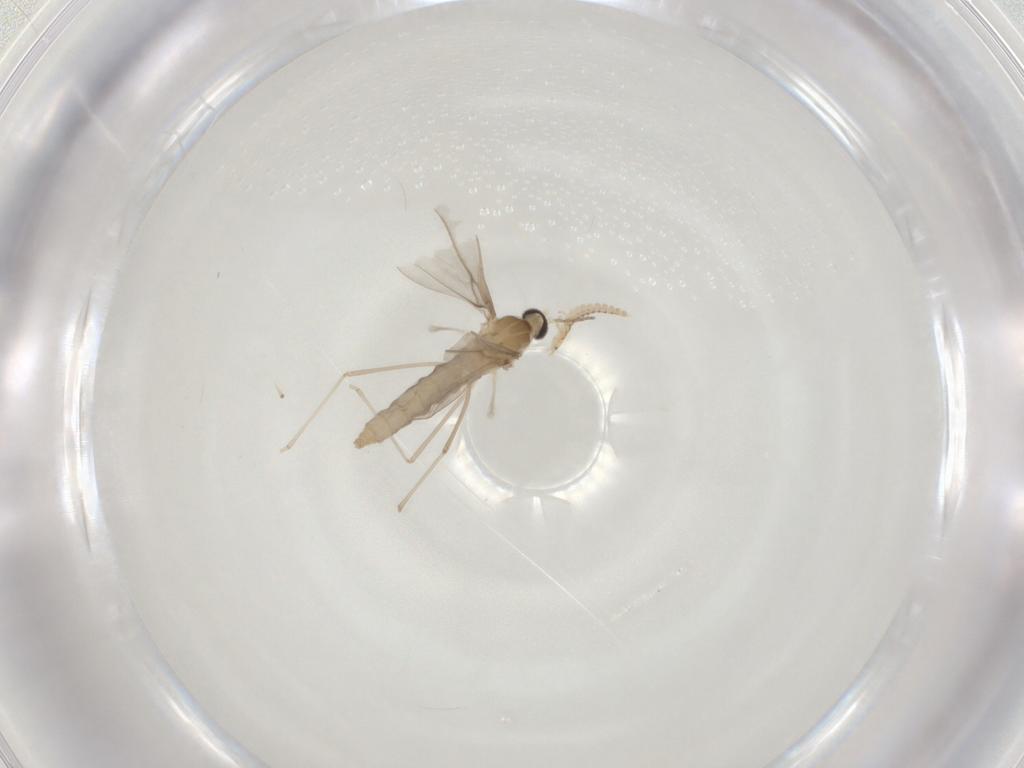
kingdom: Animalia
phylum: Arthropoda
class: Insecta
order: Diptera
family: Cecidomyiidae
